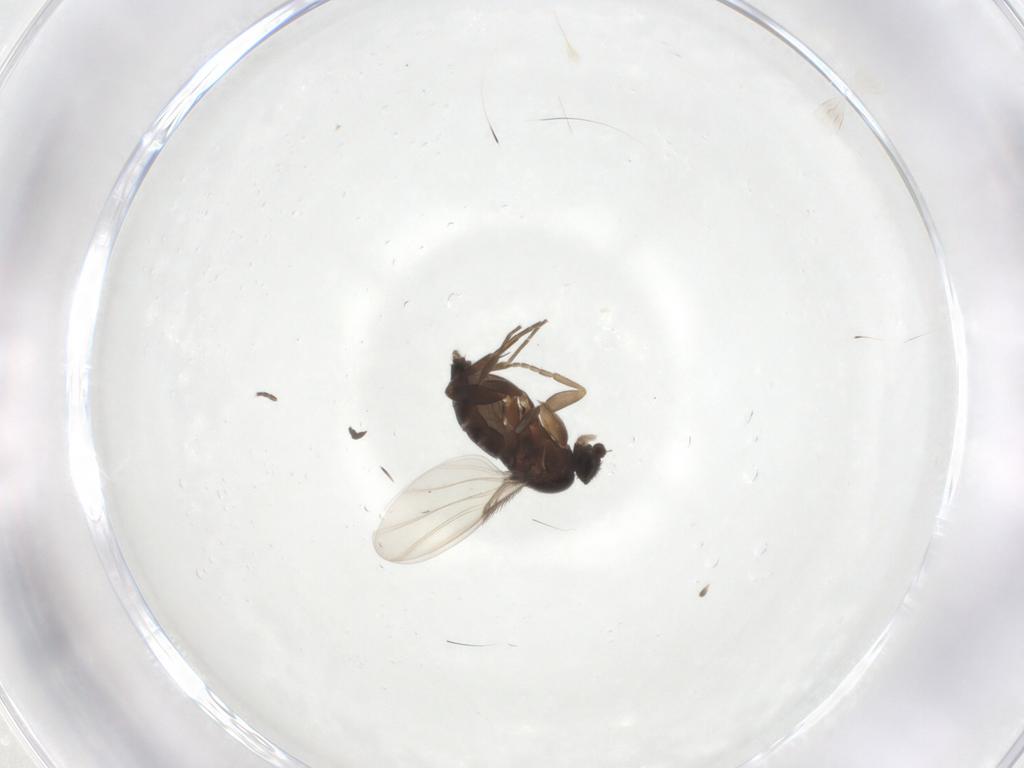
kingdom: Animalia
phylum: Arthropoda
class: Insecta
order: Diptera
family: Phoridae
